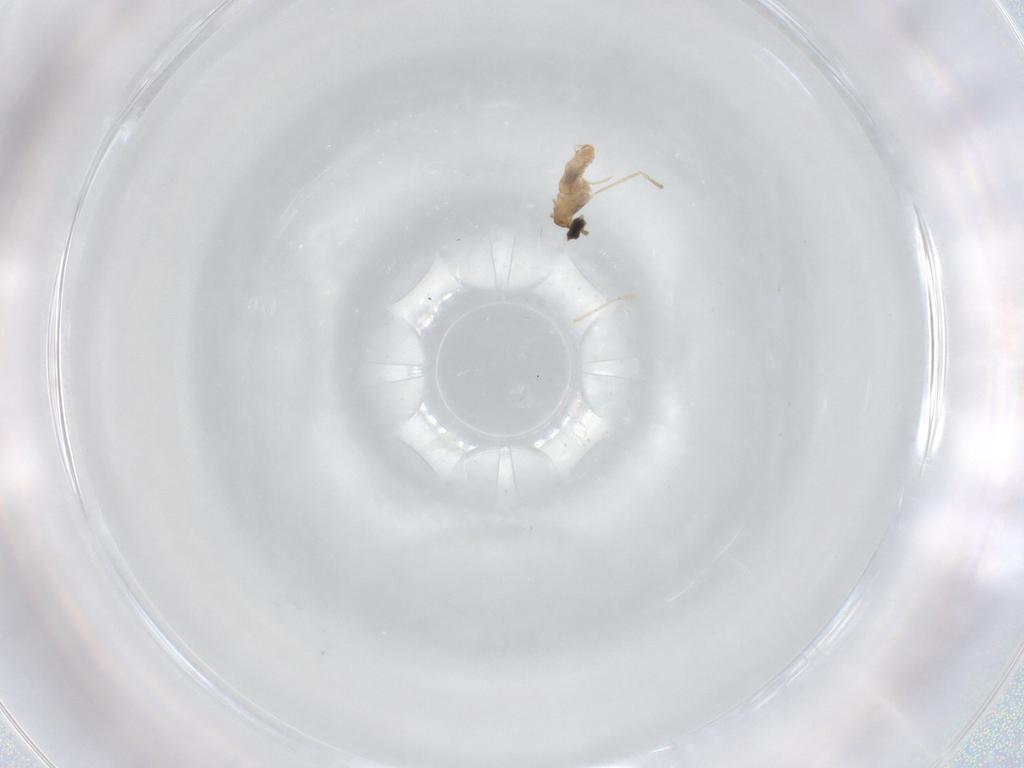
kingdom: Animalia
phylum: Arthropoda
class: Insecta
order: Diptera
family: Cecidomyiidae
